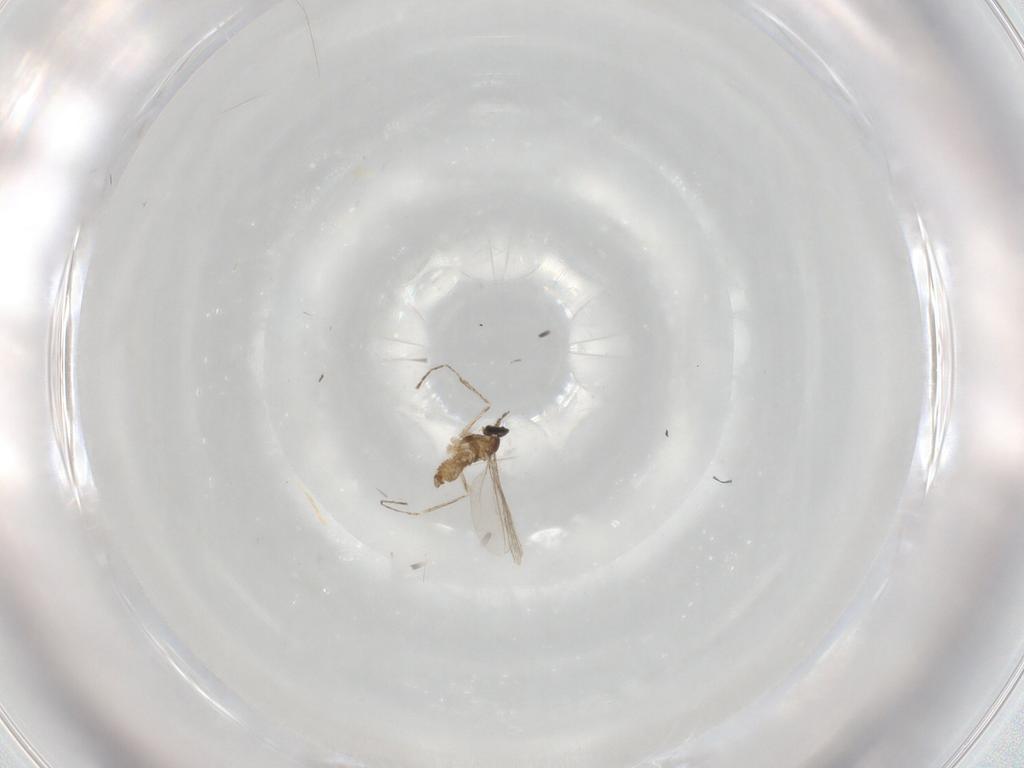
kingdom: Animalia
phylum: Arthropoda
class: Insecta
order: Diptera
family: Cecidomyiidae
